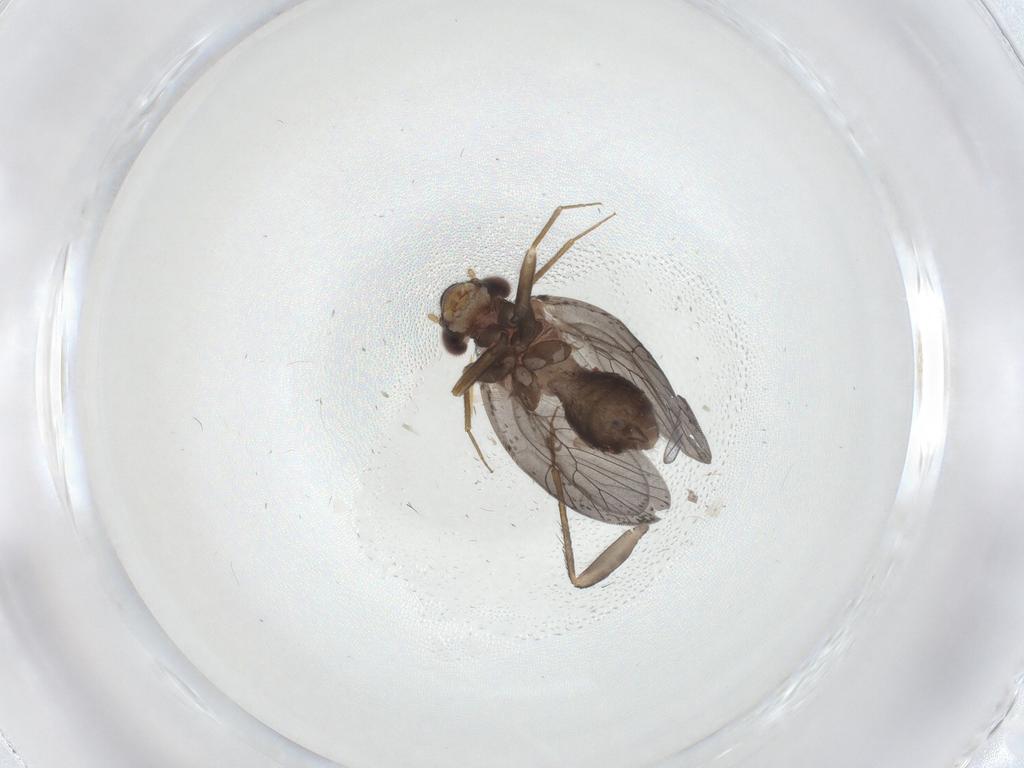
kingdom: Animalia
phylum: Arthropoda
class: Insecta
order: Psocodea
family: Lepidopsocidae
